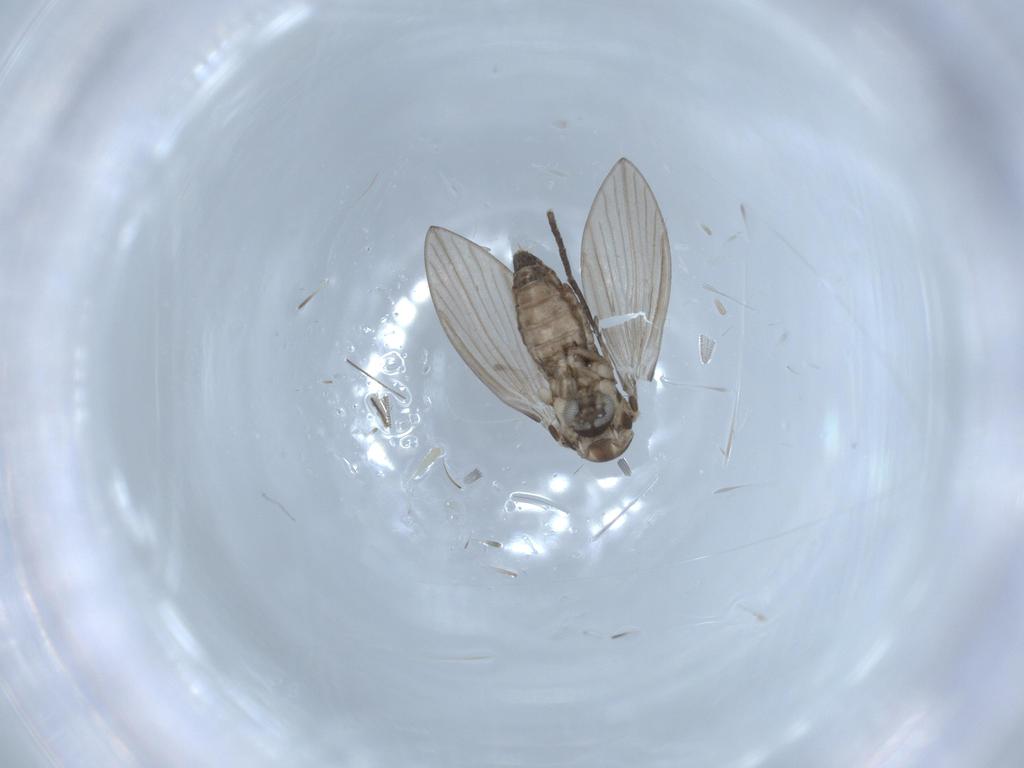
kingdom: Animalia
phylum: Arthropoda
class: Insecta
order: Diptera
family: Psychodidae
